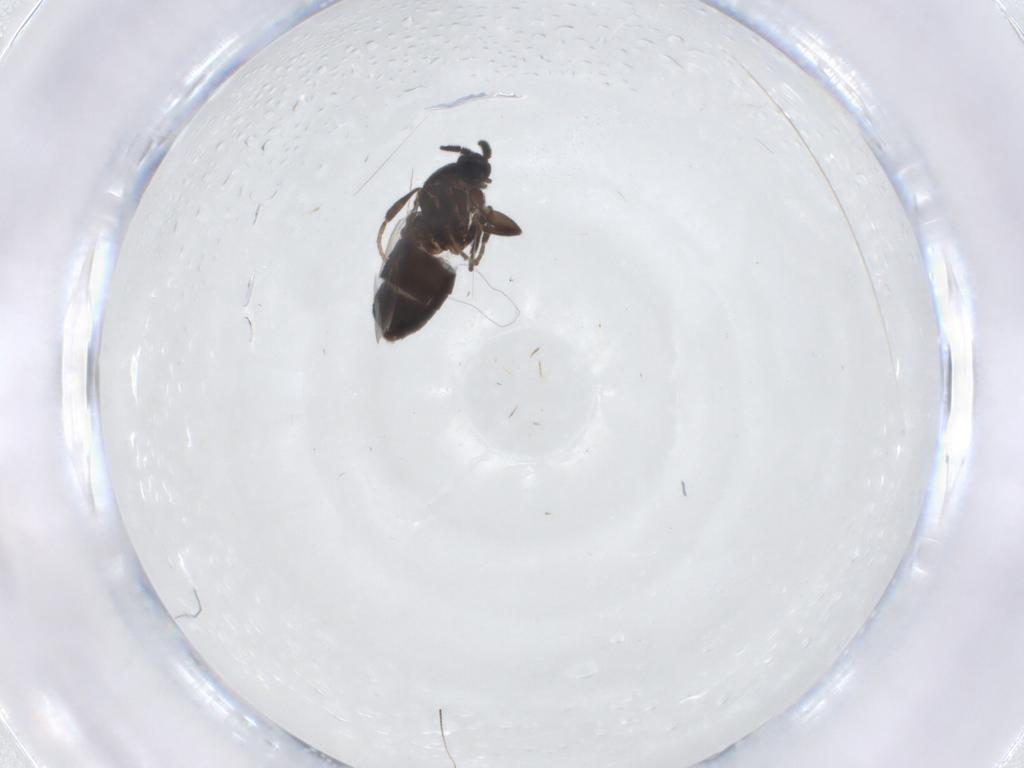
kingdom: Animalia
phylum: Arthropoda
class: Insecta
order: Diptera
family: Scatopsidae
